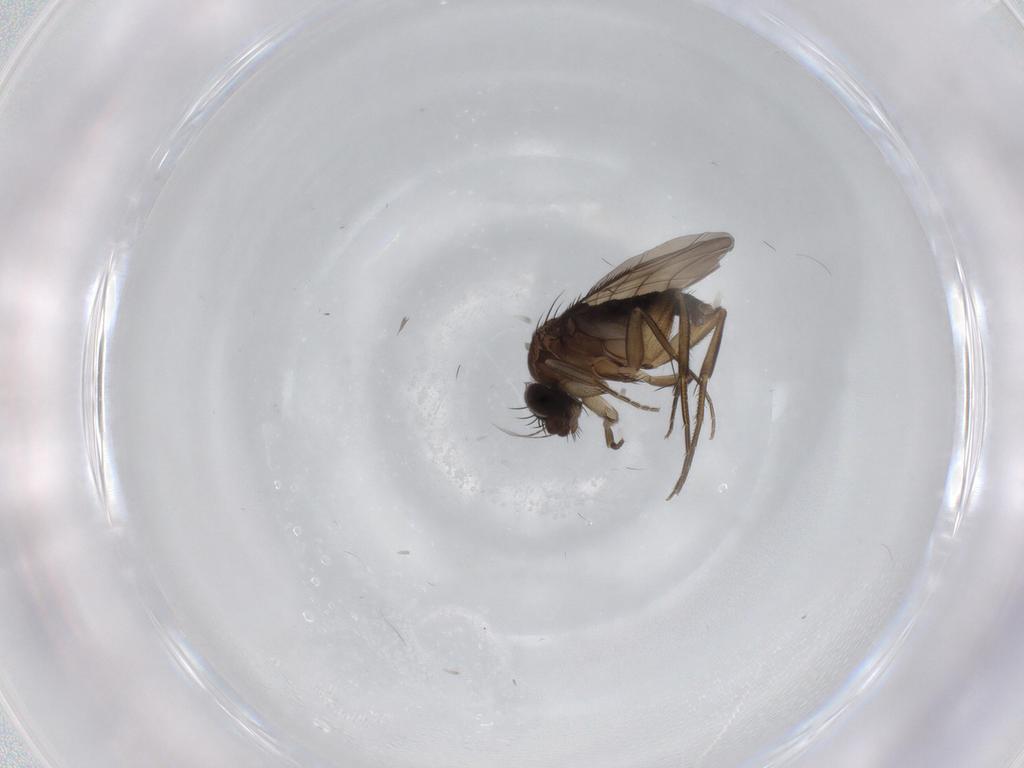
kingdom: Animalia
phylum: Arthropoda
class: Insecta
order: Diptera
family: Phoridae
